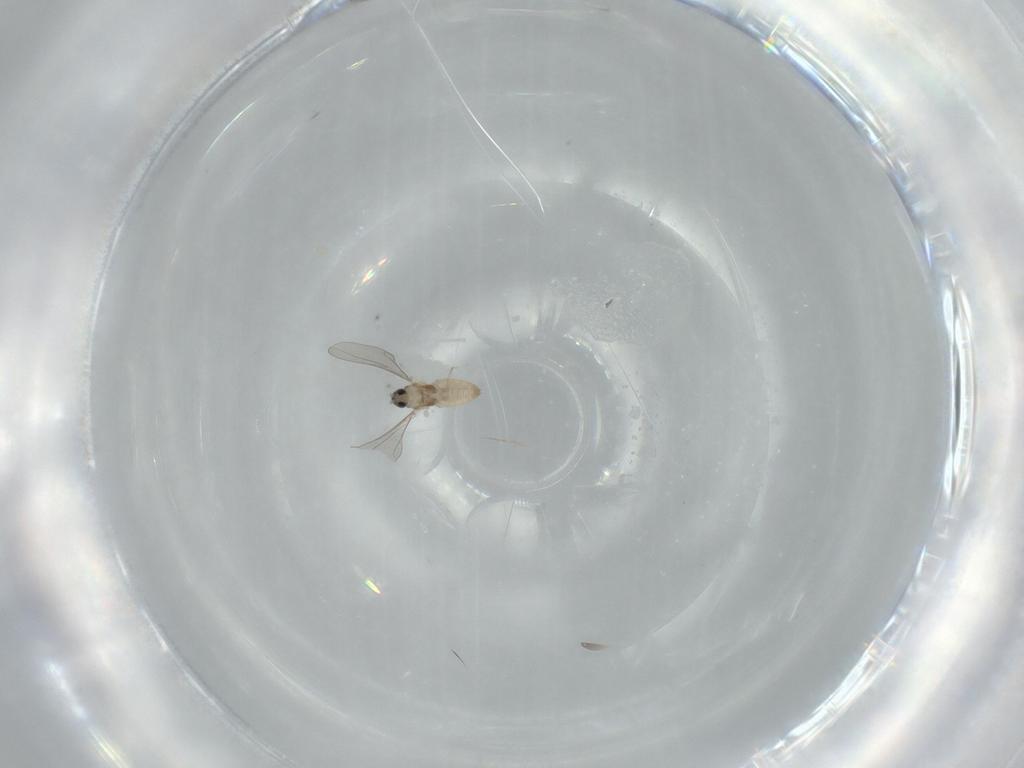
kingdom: Animalia
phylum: Arthropoda
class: Insecta
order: Diptera
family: Cecidomyiidae
